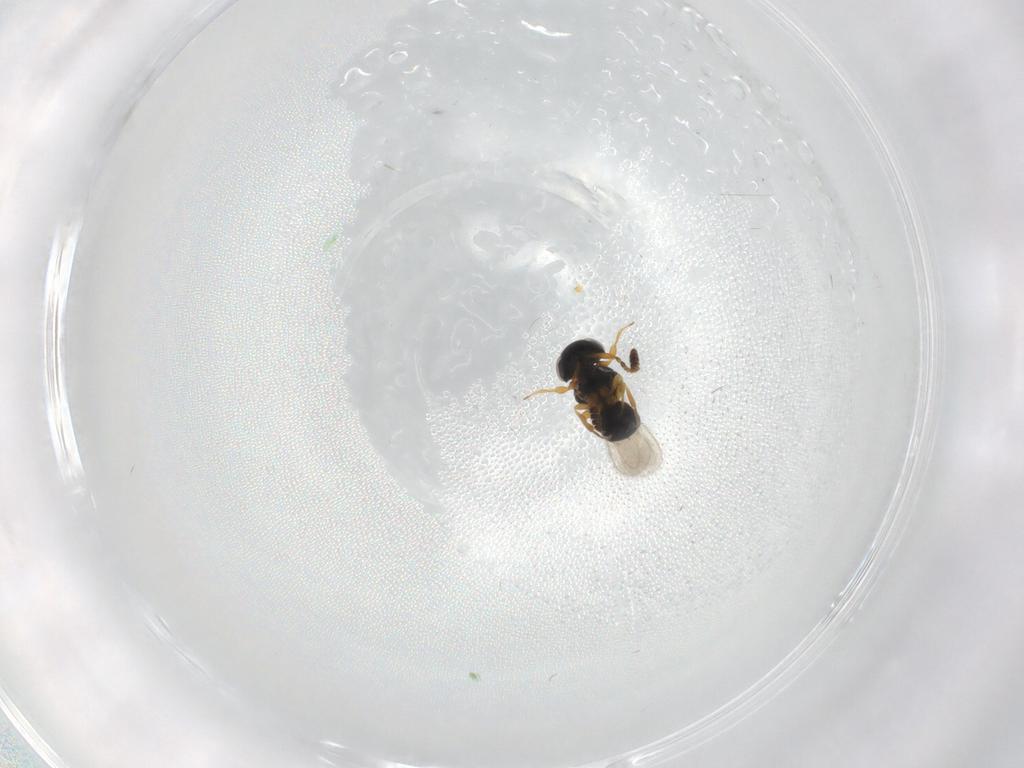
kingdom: Animalia
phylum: Arthropoda
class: Insecta
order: Hymenoptera
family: Scelionidae
